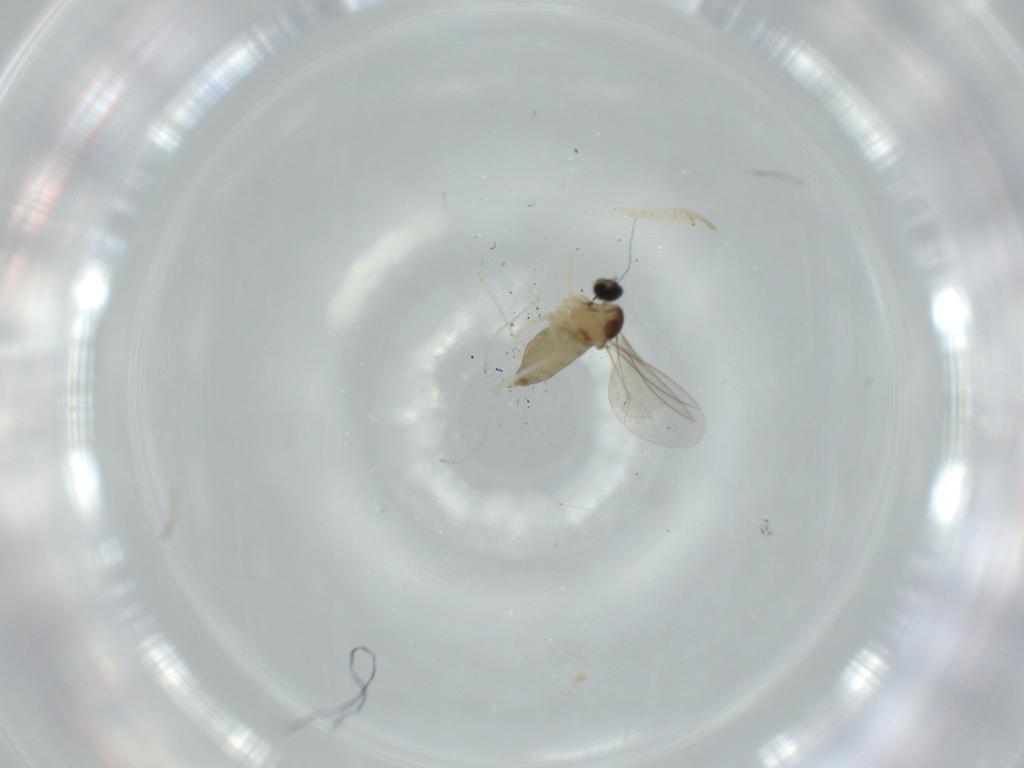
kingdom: Animalia
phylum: Arthropoda
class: Insecta
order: Diptera
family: Cecidomyiidae
